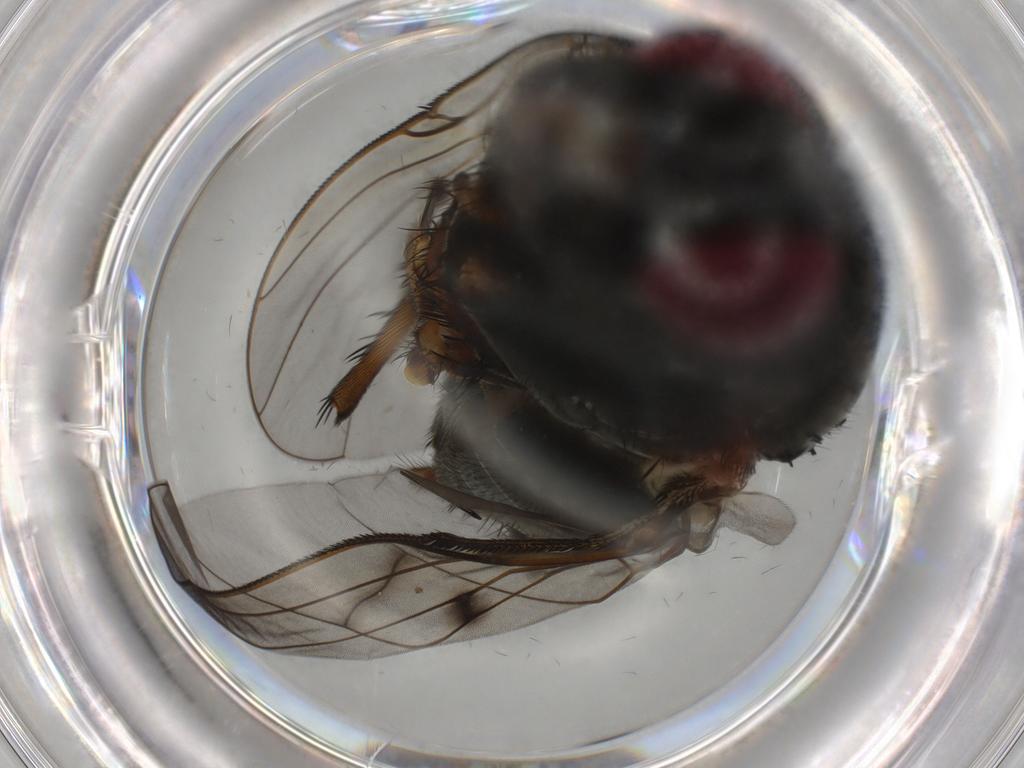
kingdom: Animalia
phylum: Arthropoda
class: Insecta
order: Diptera
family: Muscidae
